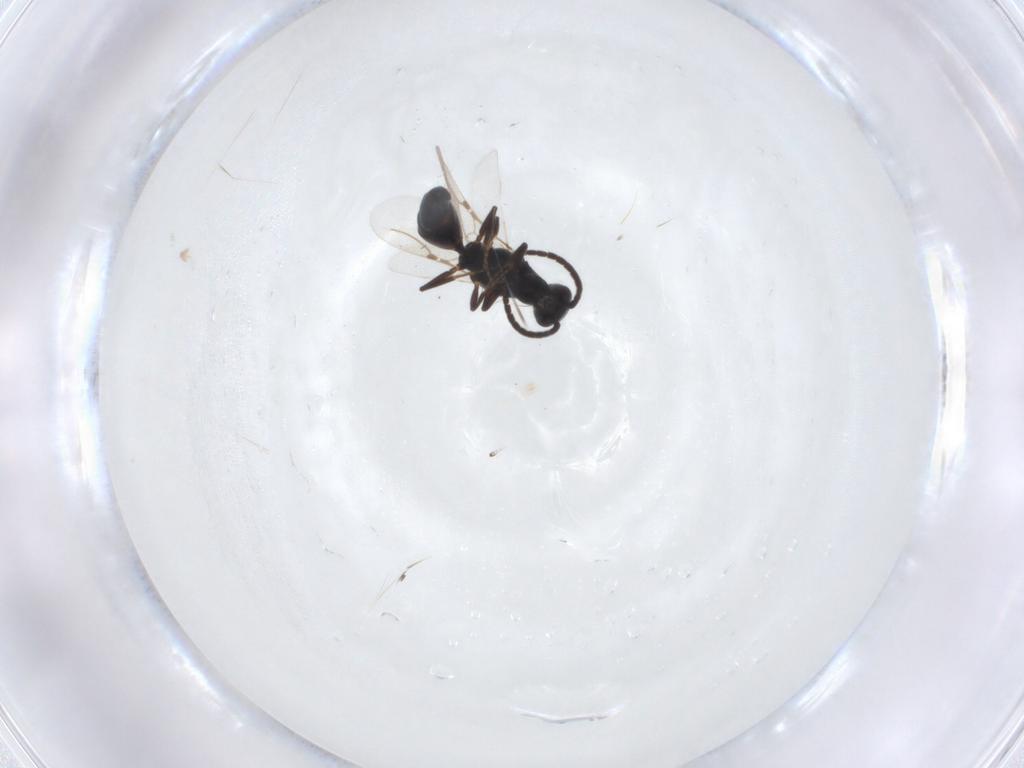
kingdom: Animalia
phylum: Arthropoda
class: Insecta
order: Hymenoptera
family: Bethylidae
